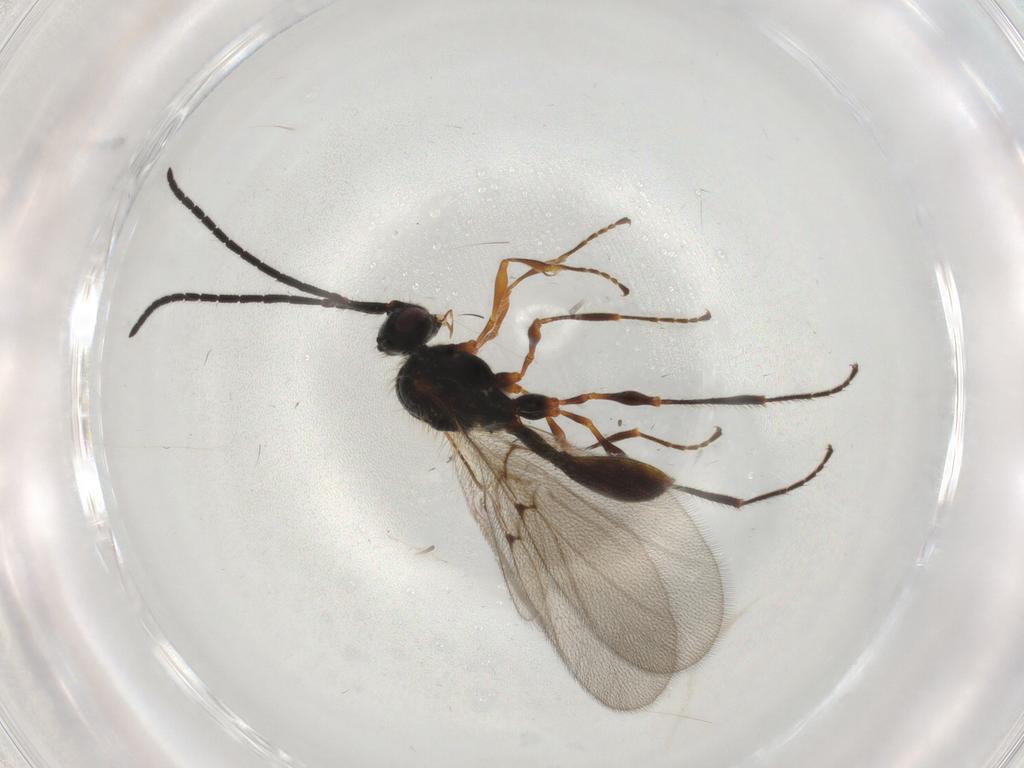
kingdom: Animalia
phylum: Arthropoda
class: Insecta
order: Hymenoptera
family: Diapriidae
